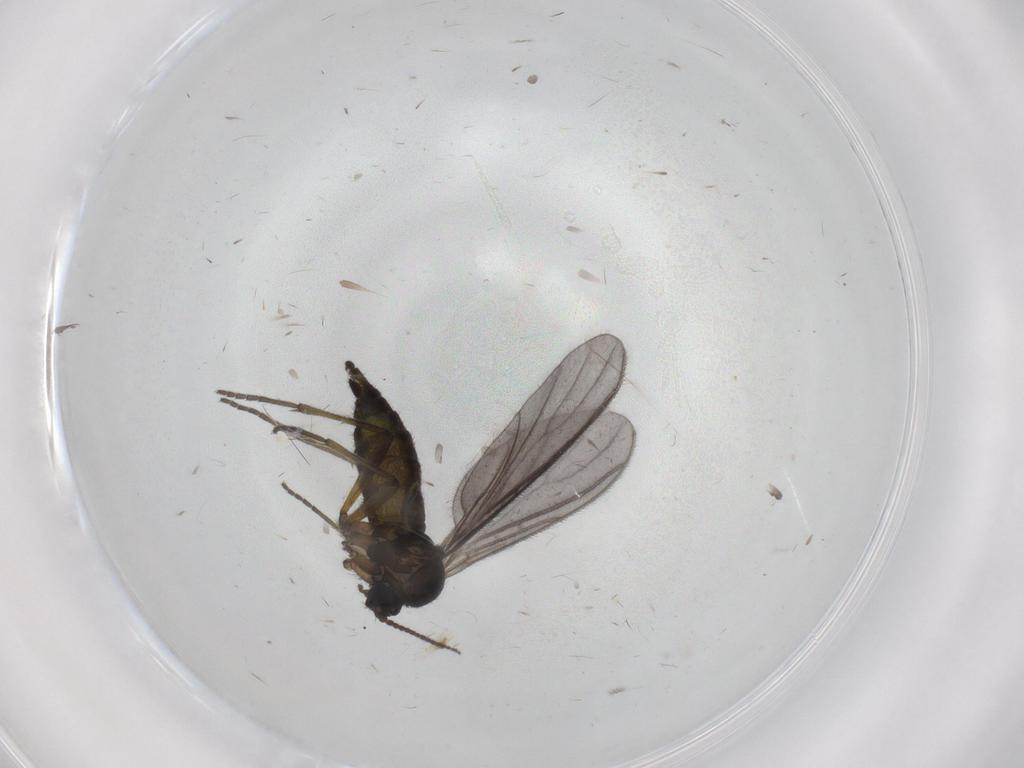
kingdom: Animalia
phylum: Arthropoda
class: Insecta
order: Diptera
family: Sciaridae
